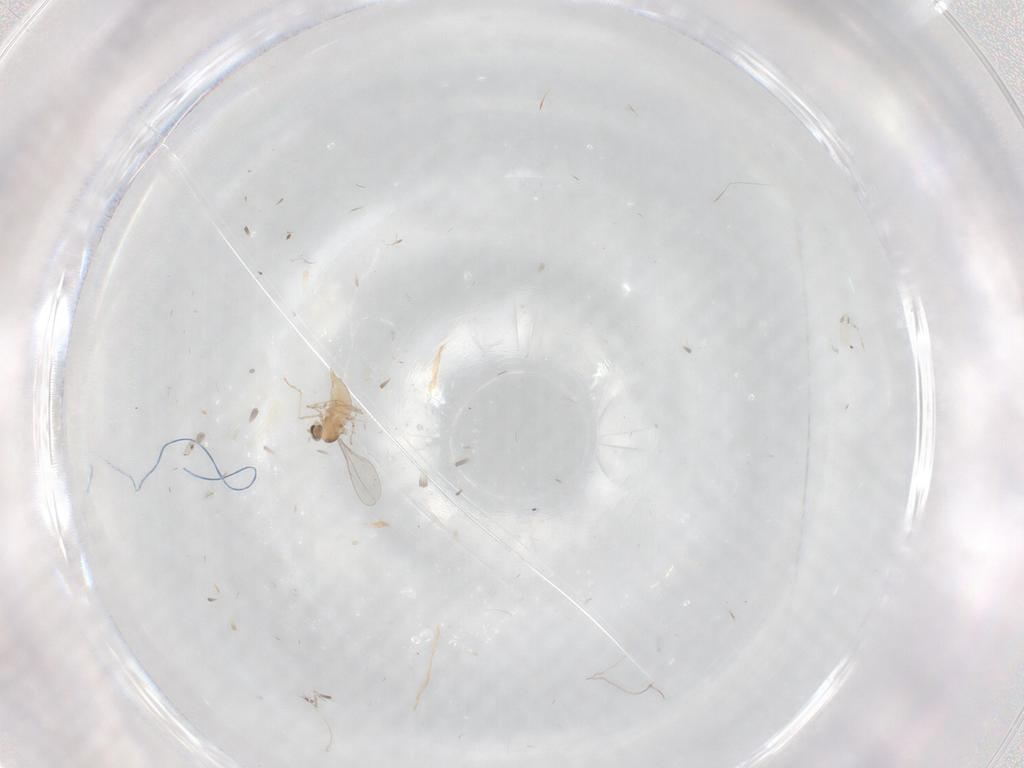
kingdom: Animalia
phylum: Arthropoda
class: Insecta
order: Diptera
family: Cecidomyiidae
